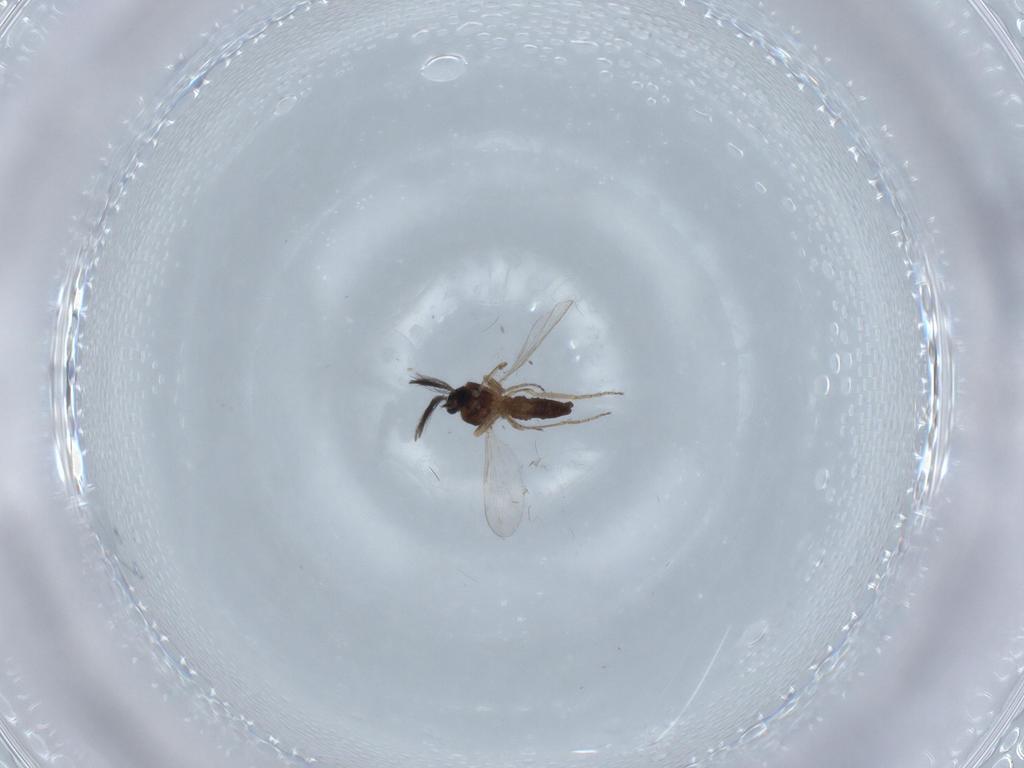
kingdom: Animalia
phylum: Arthropoda
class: Insecta
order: Diptera
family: Ceratopogonidae
